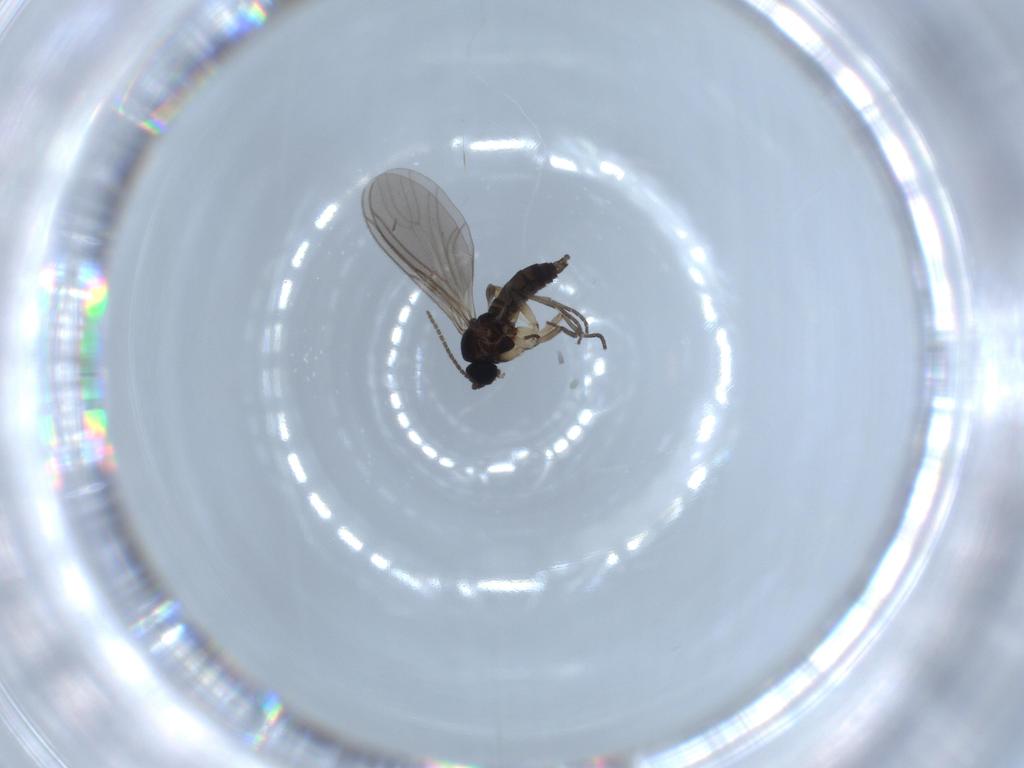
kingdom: Animalia
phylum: Arthropoda
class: Insecta
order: Diptera
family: Sciaridae
